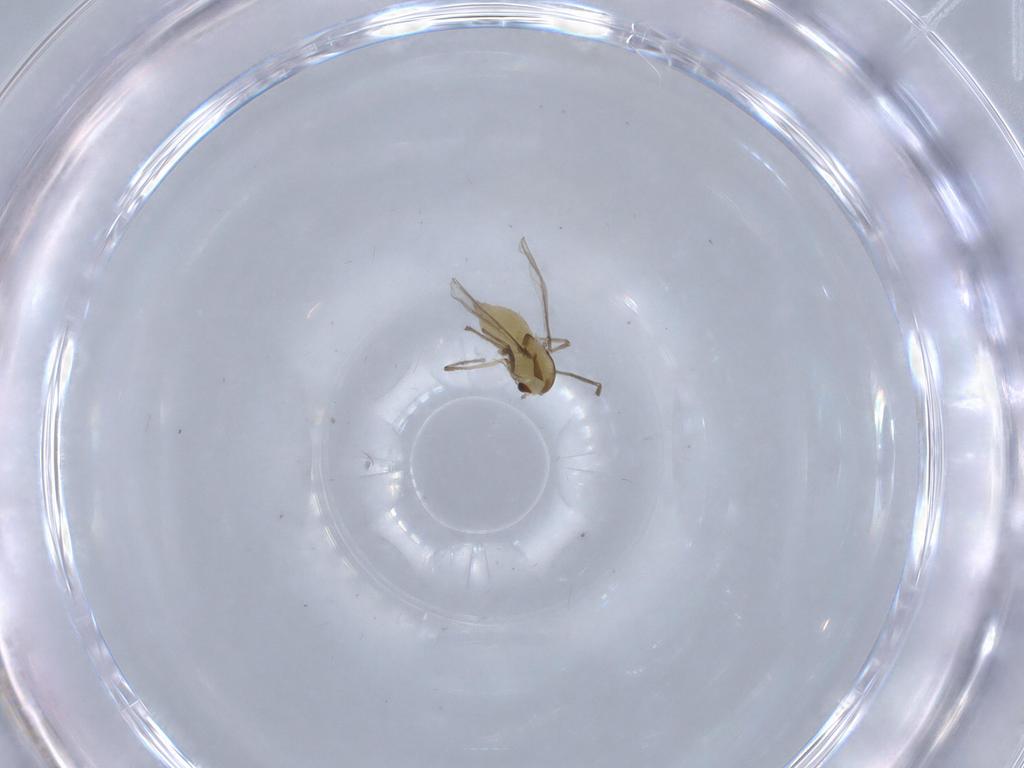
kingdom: Animalia
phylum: Arthropoda
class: Insecta
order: Diptera
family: Chironomidae
